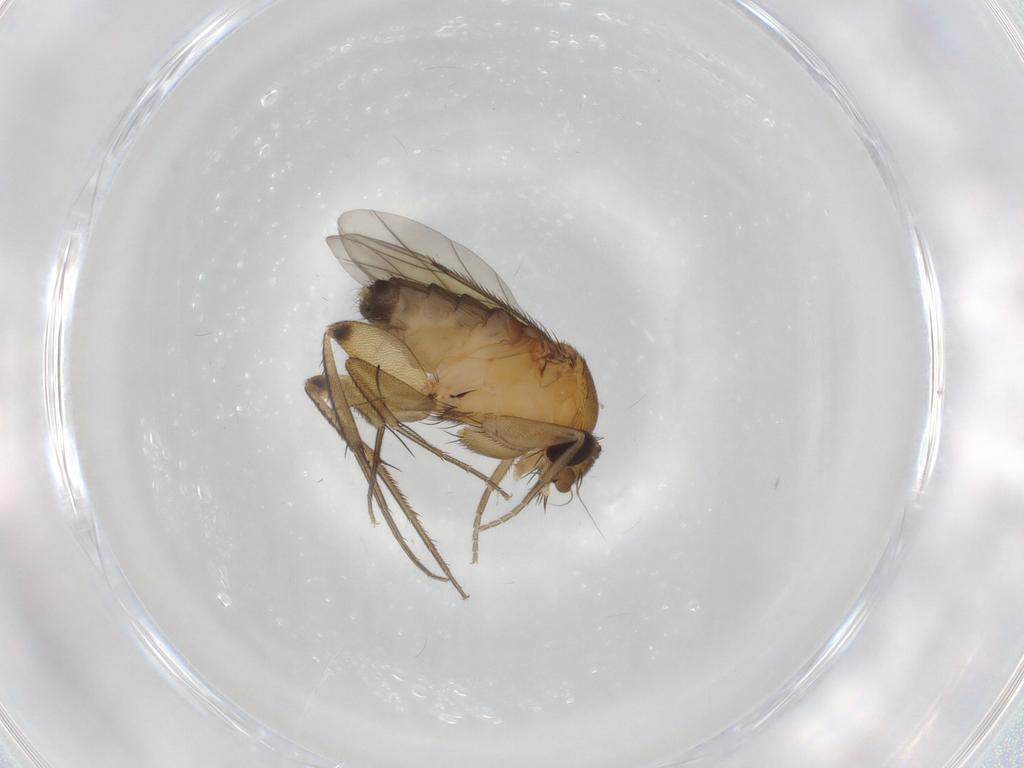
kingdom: Animalia
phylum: Arthropoda
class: Insecta
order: Diptera
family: Phoridae
